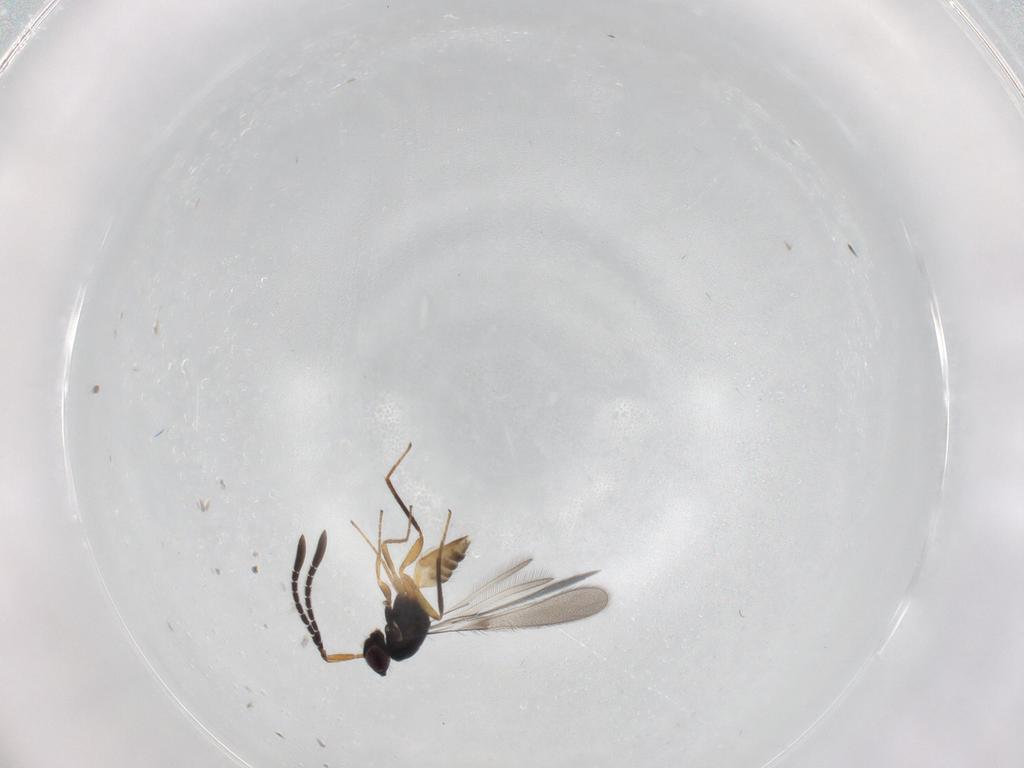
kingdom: Animalia
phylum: Arthropoda
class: Insecta
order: Hymenoptera
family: Mymaridae
